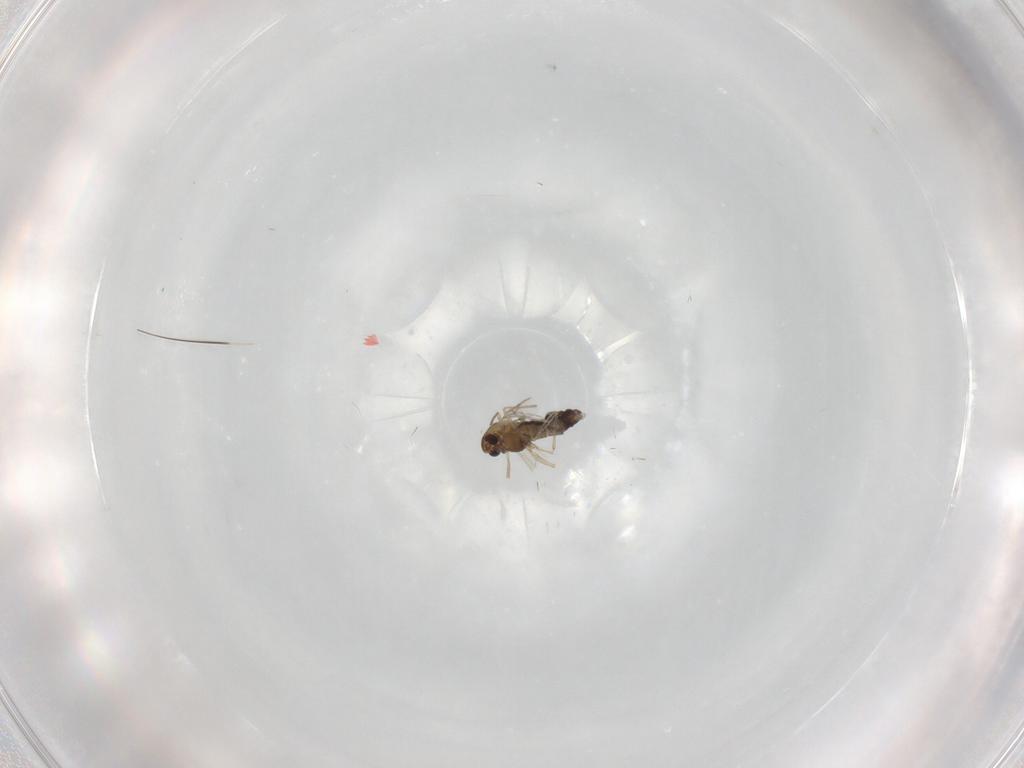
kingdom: Animalia
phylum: Arthropoda
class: Insecta
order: Diptera
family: Chironomidae
